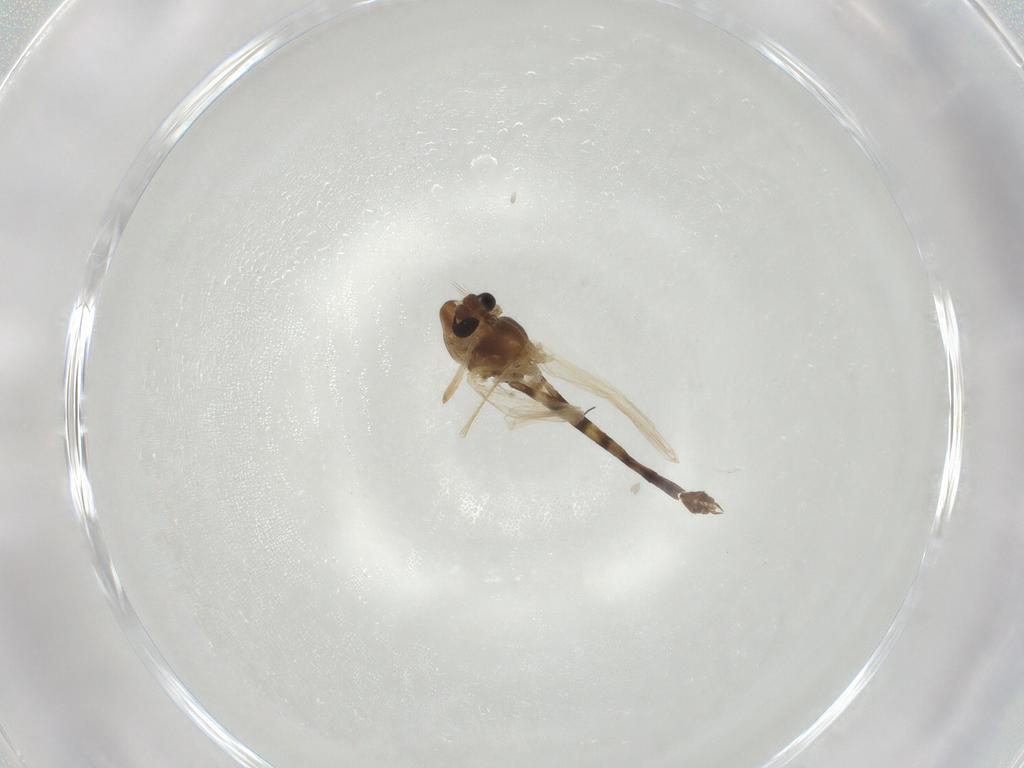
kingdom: Animalia
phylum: Arthropoda
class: Insecta
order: Diptera
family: Chironomidae
